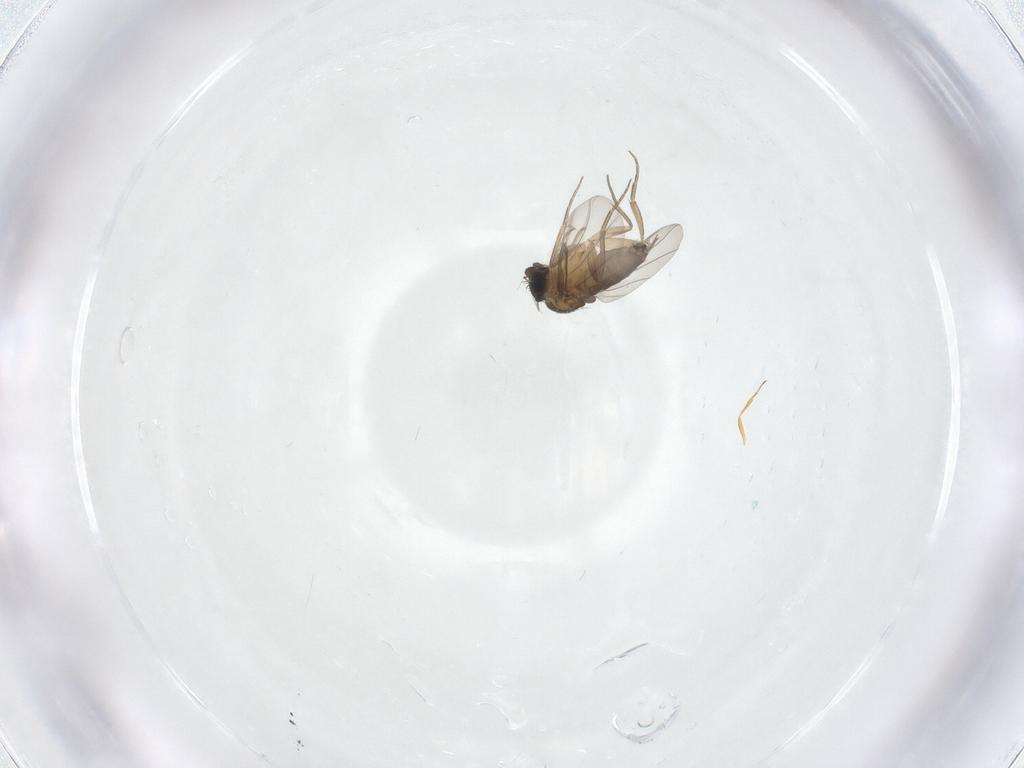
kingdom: Animalia
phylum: Arthropoda
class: Insecta
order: Diptera
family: Phoridae
